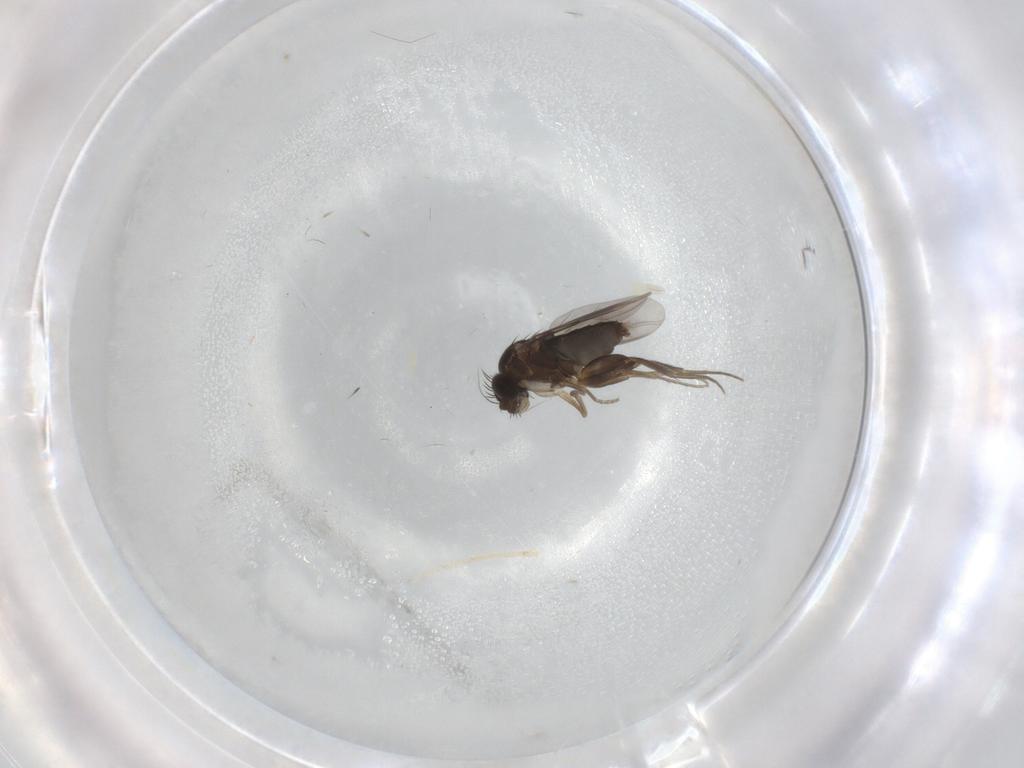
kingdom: Animalia
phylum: Arthropoda
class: Insecta
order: Diptera
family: Phoridae
